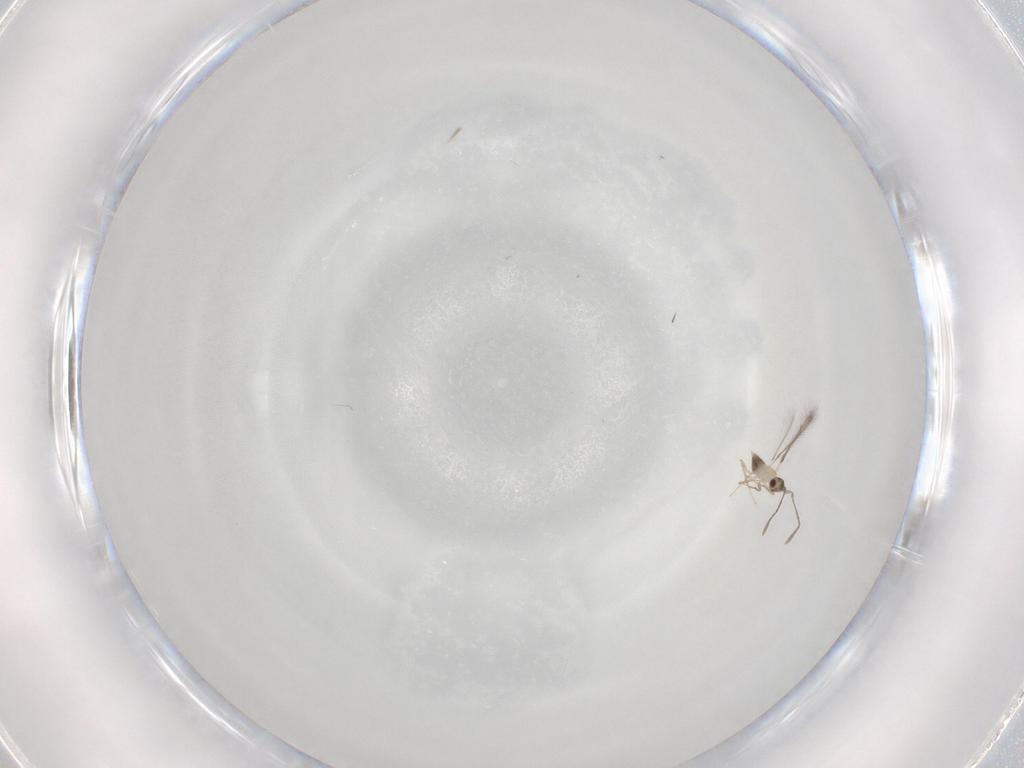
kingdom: Animalia
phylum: Arthropoda
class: Insecta
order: Hymenoptera
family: Mymaridae
